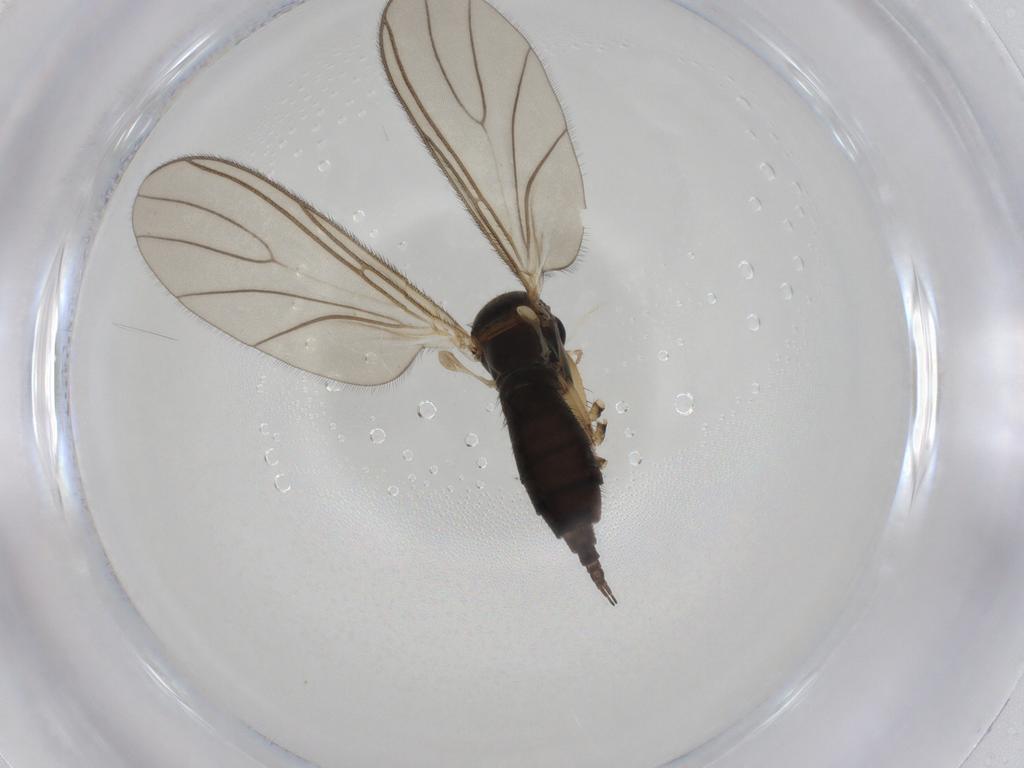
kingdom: Animalia
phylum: Arthropoda
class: Insecta
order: Diptera
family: Sciaridae
